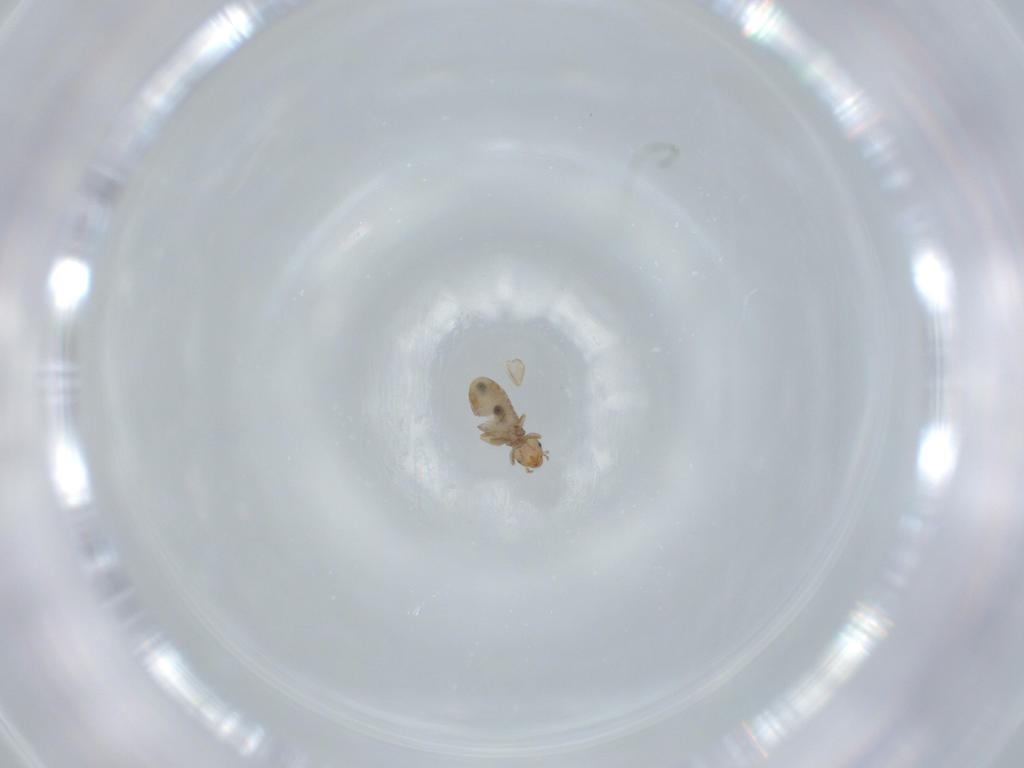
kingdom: Animalia
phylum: Arthropoda
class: Insecta
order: Psocodea
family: Liposcelididae
